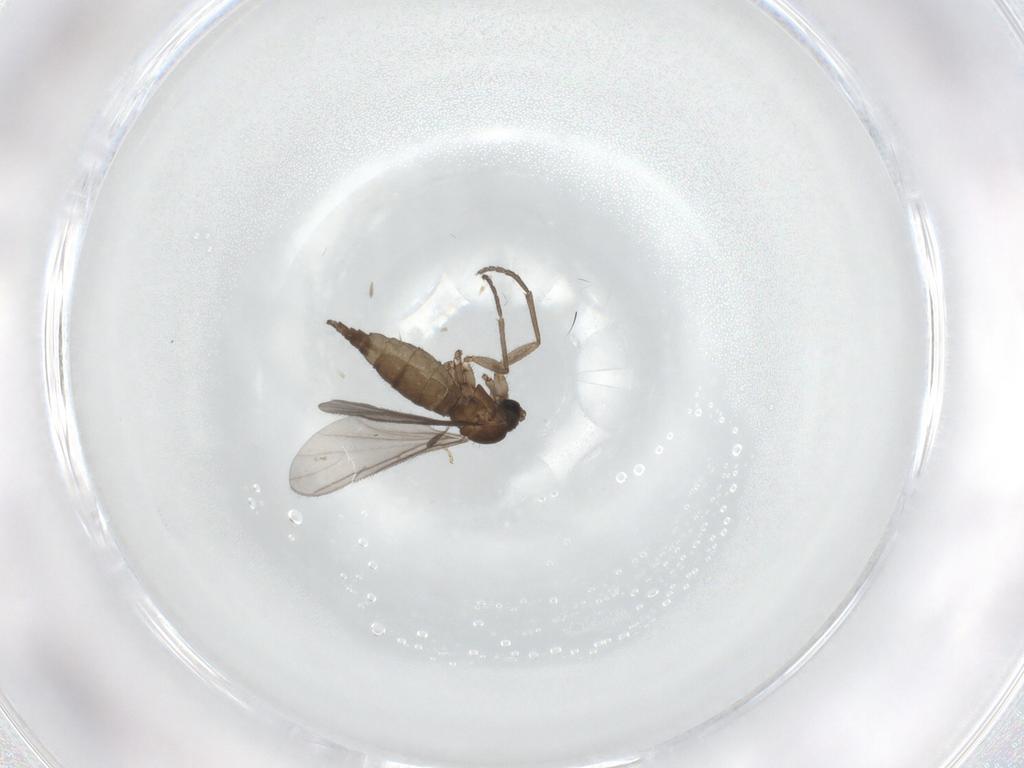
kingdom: Animalia
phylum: Arthropoda
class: Insecta
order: Diptera
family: Sciaridae
